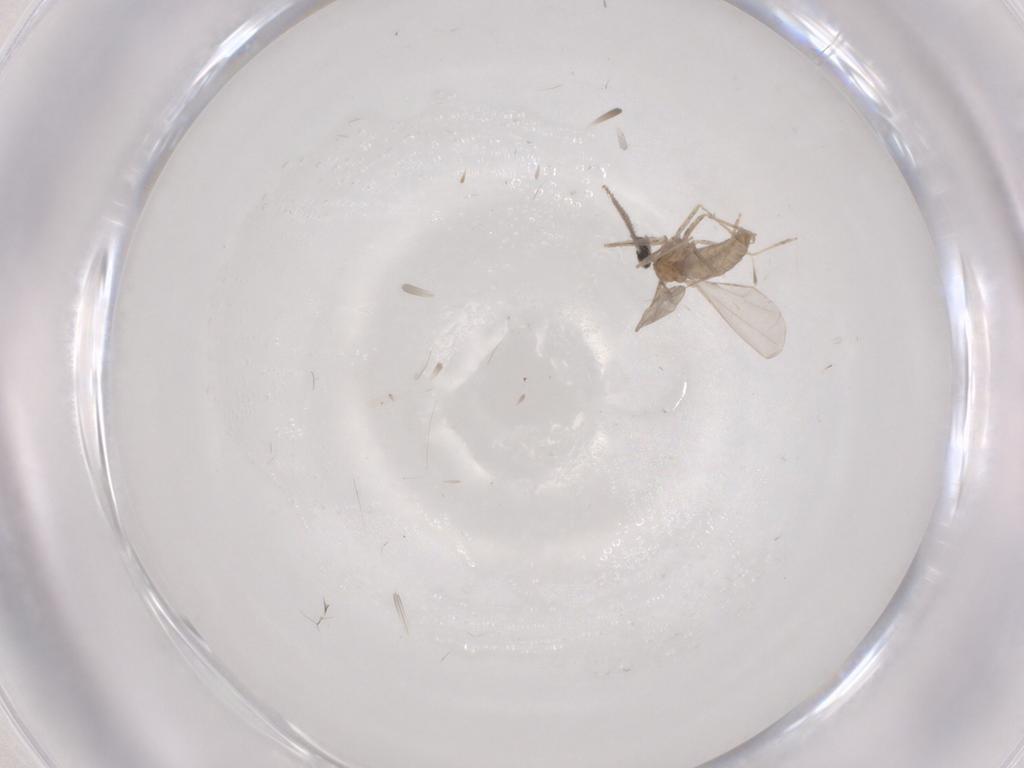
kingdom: Animalia
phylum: Arthropoda
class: Insecta
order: Diptera
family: Cecidomyiidae
